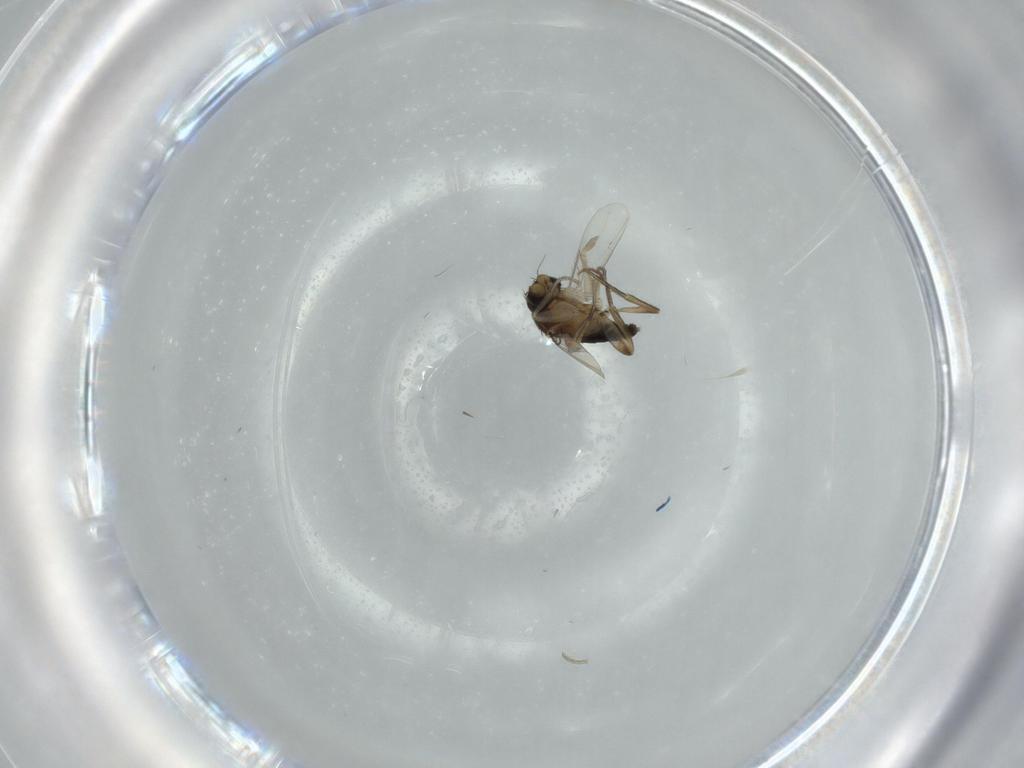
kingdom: Animalia
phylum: Arthropoda
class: Insecta
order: Diptera
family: Phoridae
